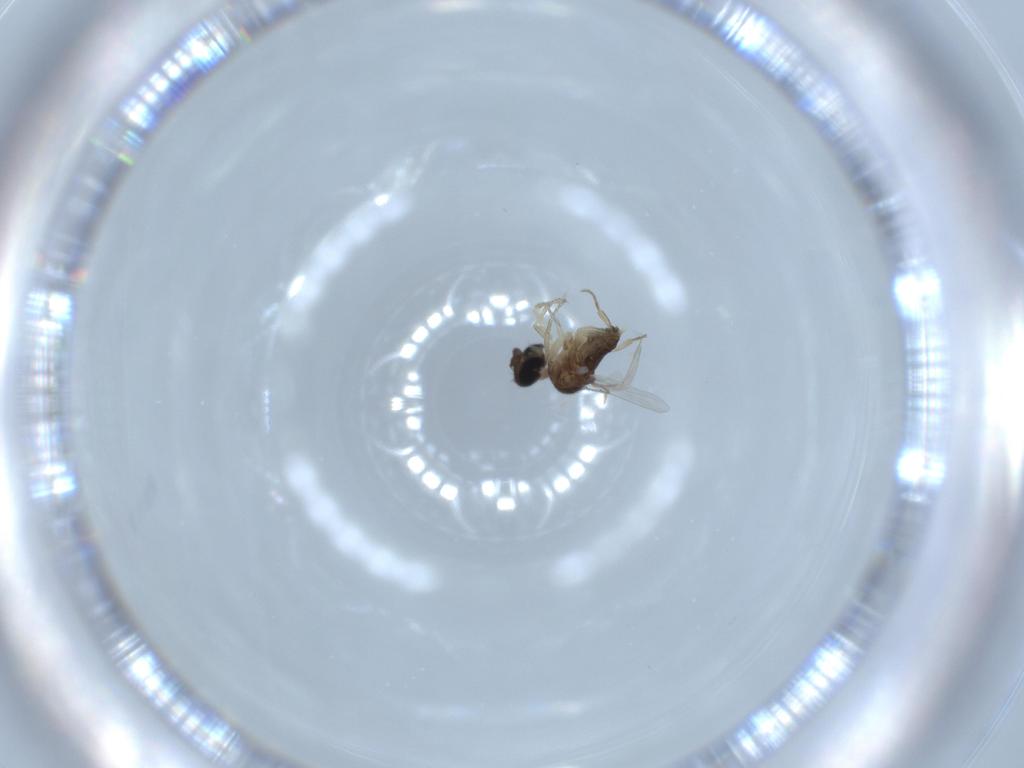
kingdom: Animalia
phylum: Arthropoda
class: Insecta
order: Diptera
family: Phoridae
